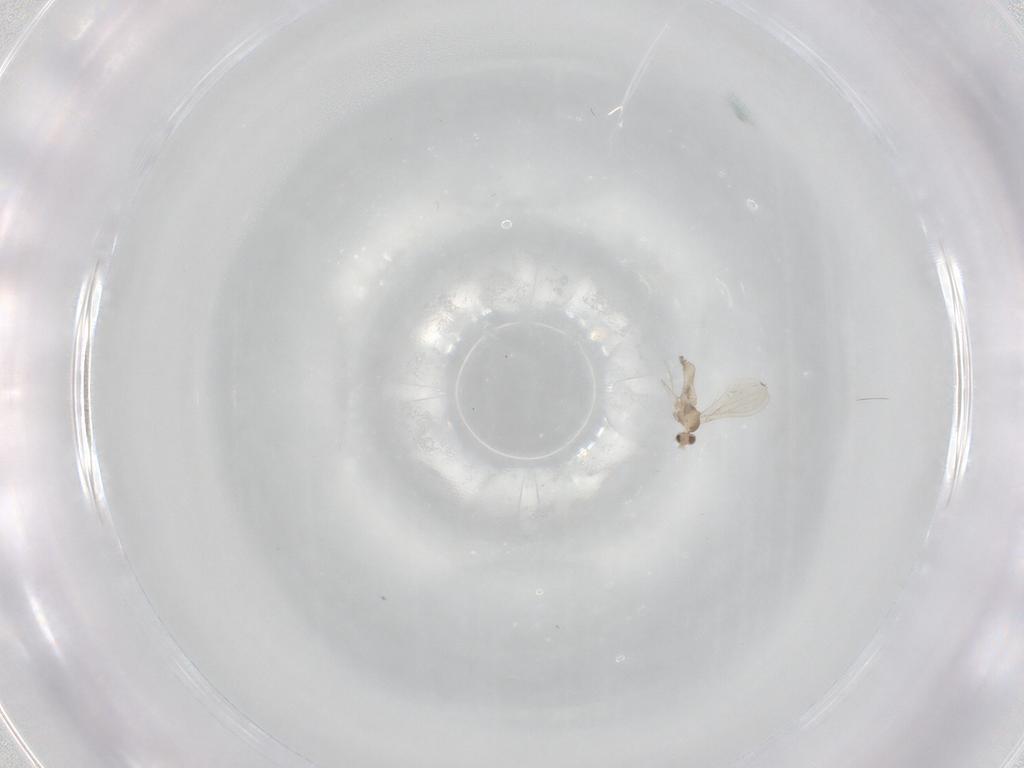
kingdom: Animalia
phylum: Arthropoda
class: Insecta
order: Diptera
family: Cecidomyiidae
